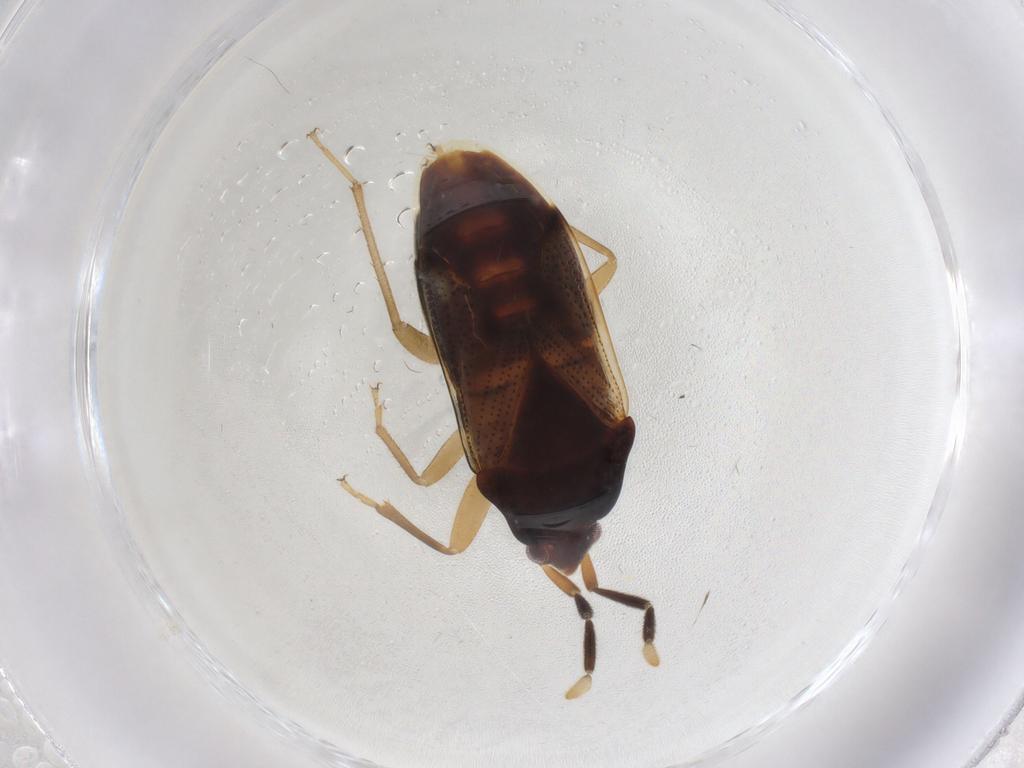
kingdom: Animalia
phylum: Arthropoda
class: Insecta
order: Hemiptera
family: Rhyparochromidae
